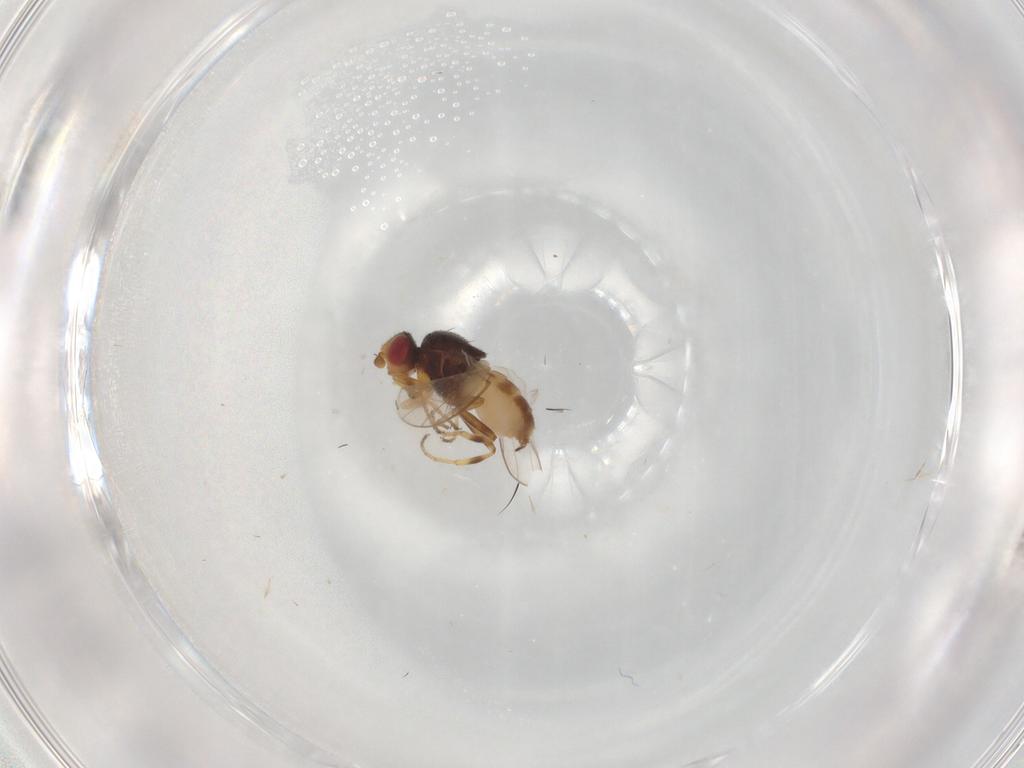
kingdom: Animalia
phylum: Arthropoda
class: Insecta
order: Diptera
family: Chloropidae
